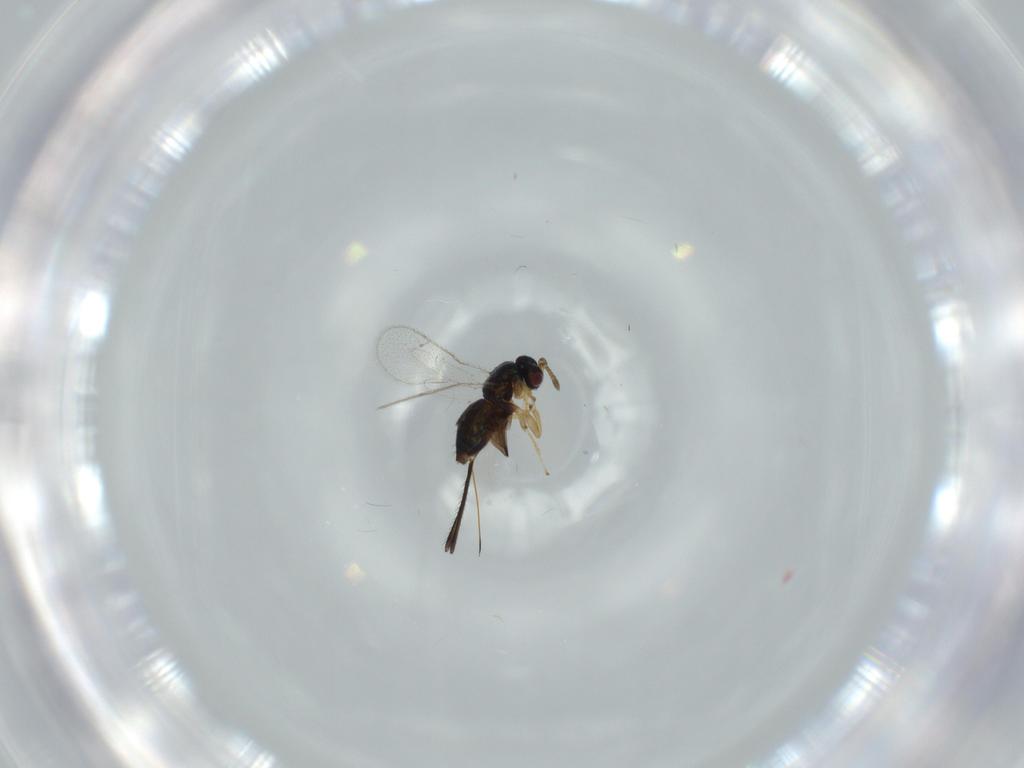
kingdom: Animalia
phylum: Arthropoda
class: Insecta
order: Hymenoptera
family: Torymidae
